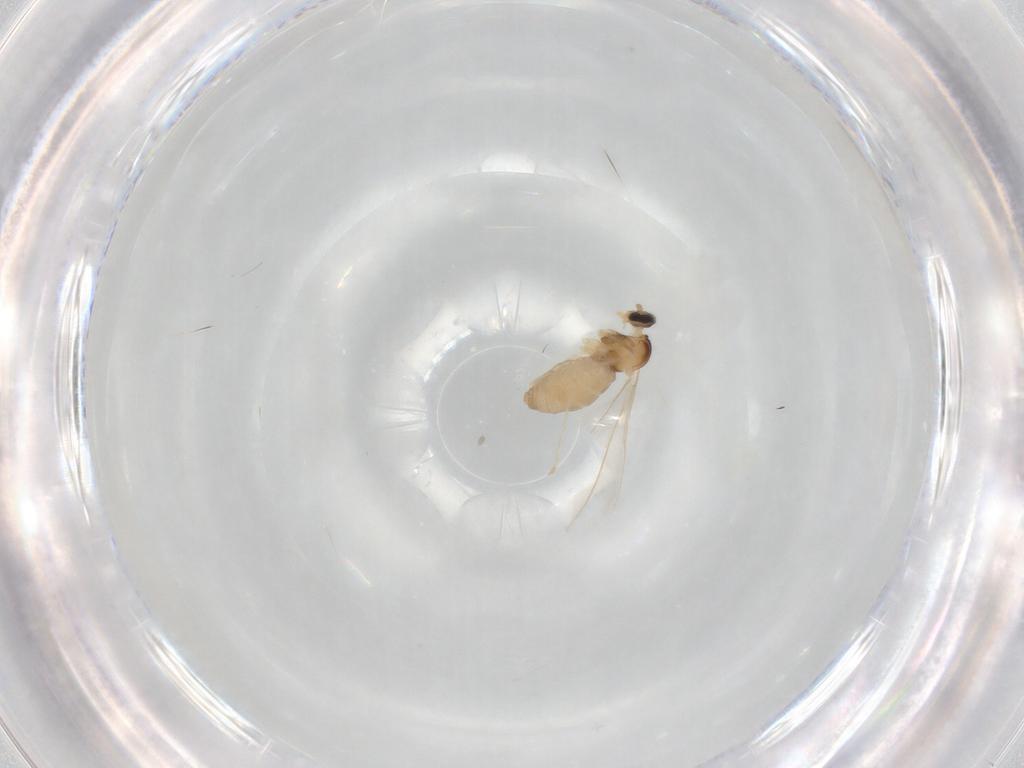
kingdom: Animalia
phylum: Arthropoda
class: Insecta
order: Diptera
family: Cecidomyiidae
